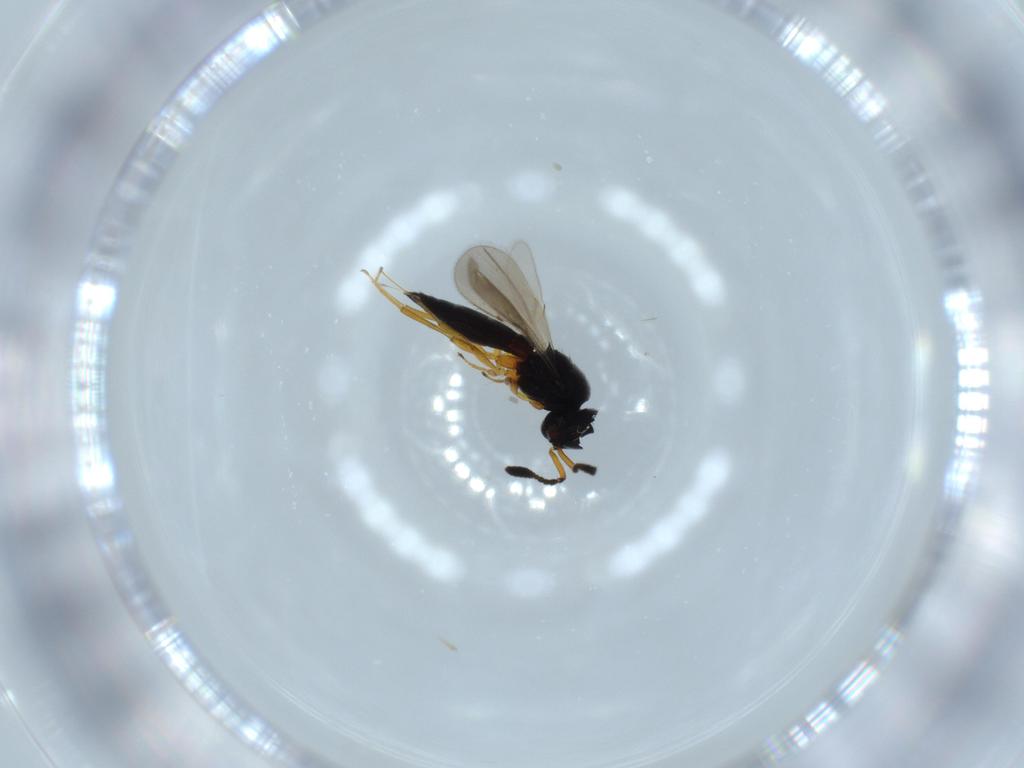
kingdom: Animalia
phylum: Arthropoda
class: Insecta
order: Hymenoptera
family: Scelionidae
